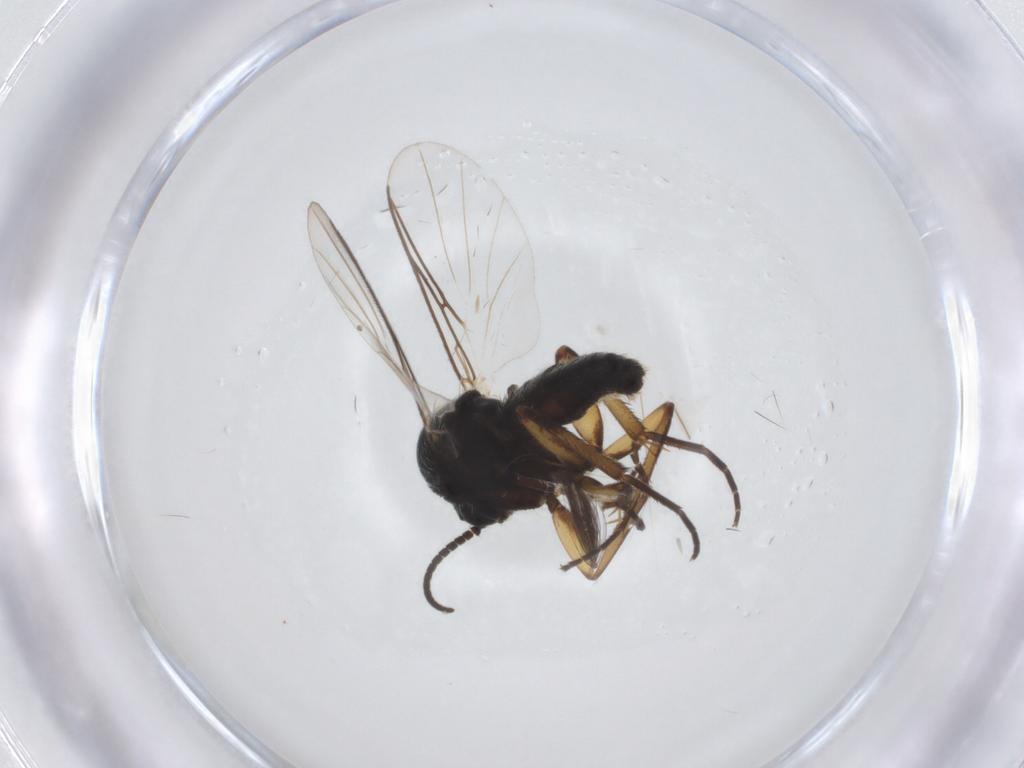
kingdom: Animalia
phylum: Arthropoda
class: Insecta
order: Diptera
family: Mycetophilidae
